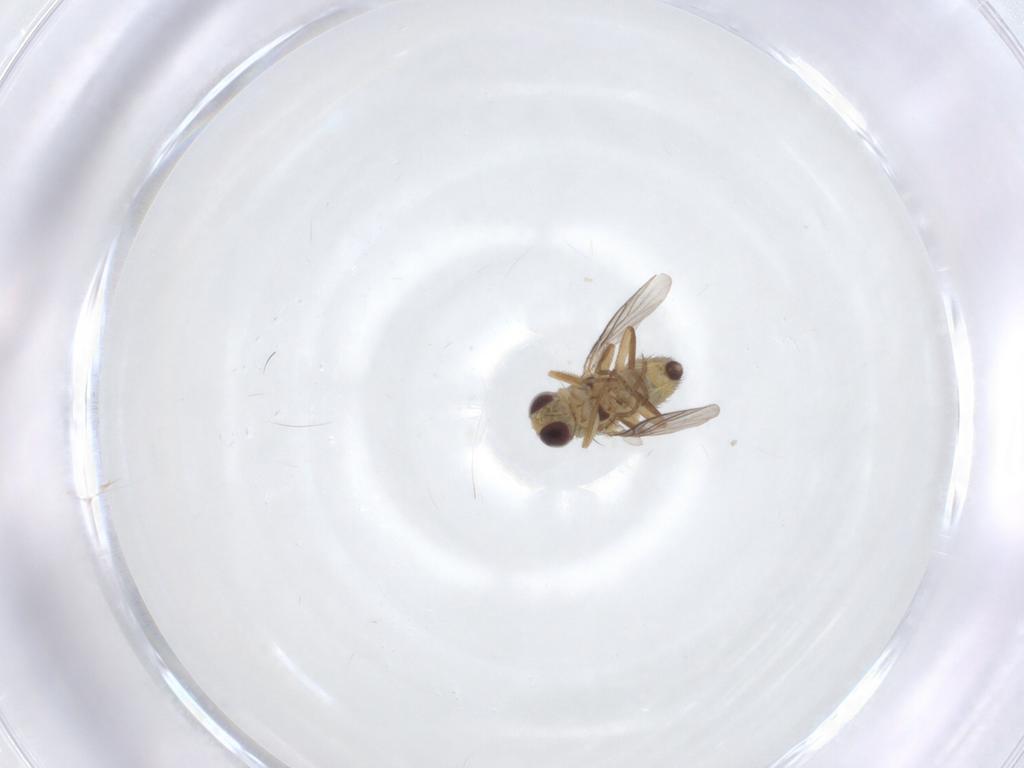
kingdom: Animalia
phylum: Arthropoda
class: Insecta
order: Diptera
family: Agromyzidae
